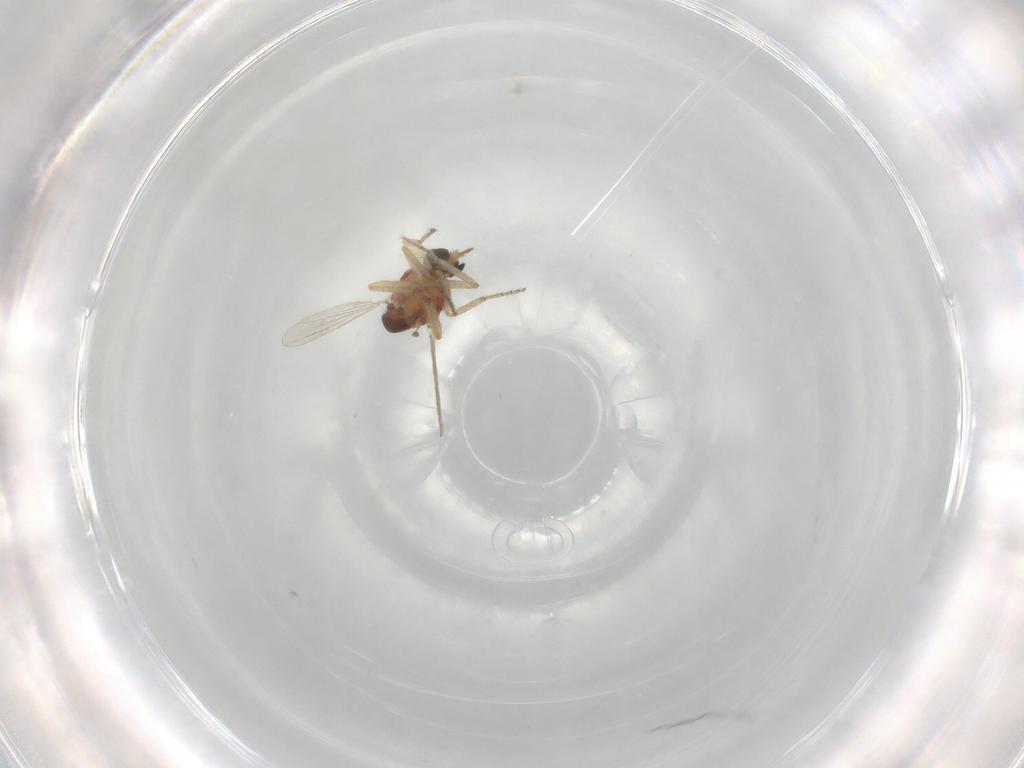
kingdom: Animalia
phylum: Arthropoda
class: Insecta
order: Diptera
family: Ceratopogonidae
